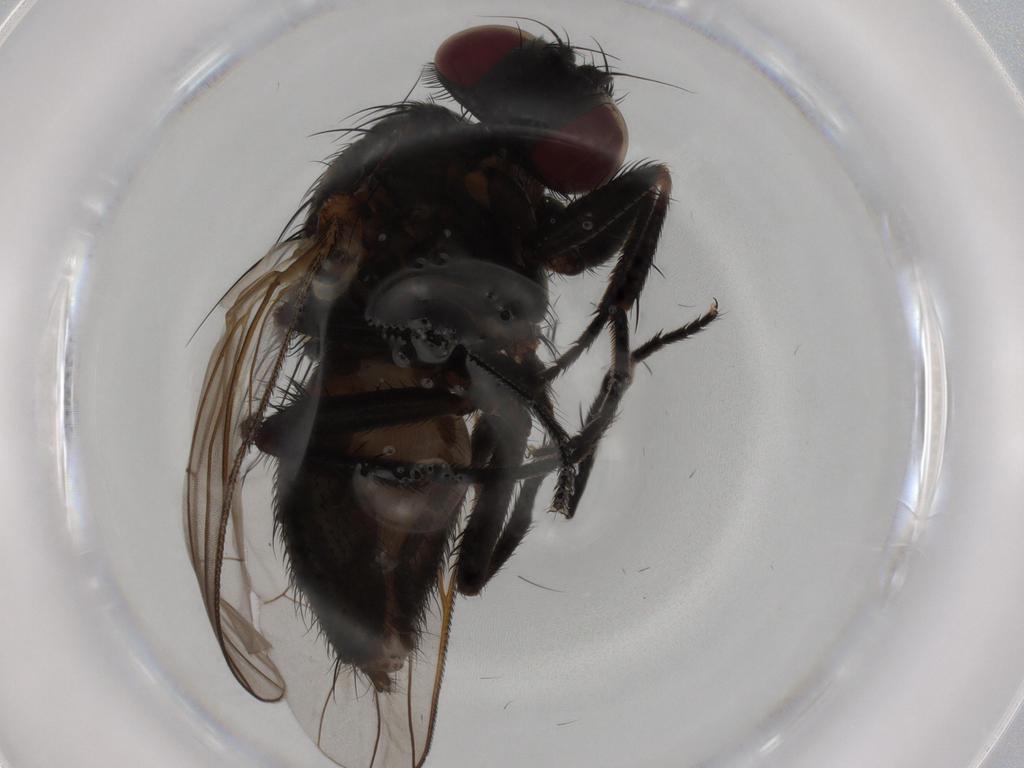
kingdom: Animalia
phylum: Arthropoda
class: Insecta
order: Diptera
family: Fannia
